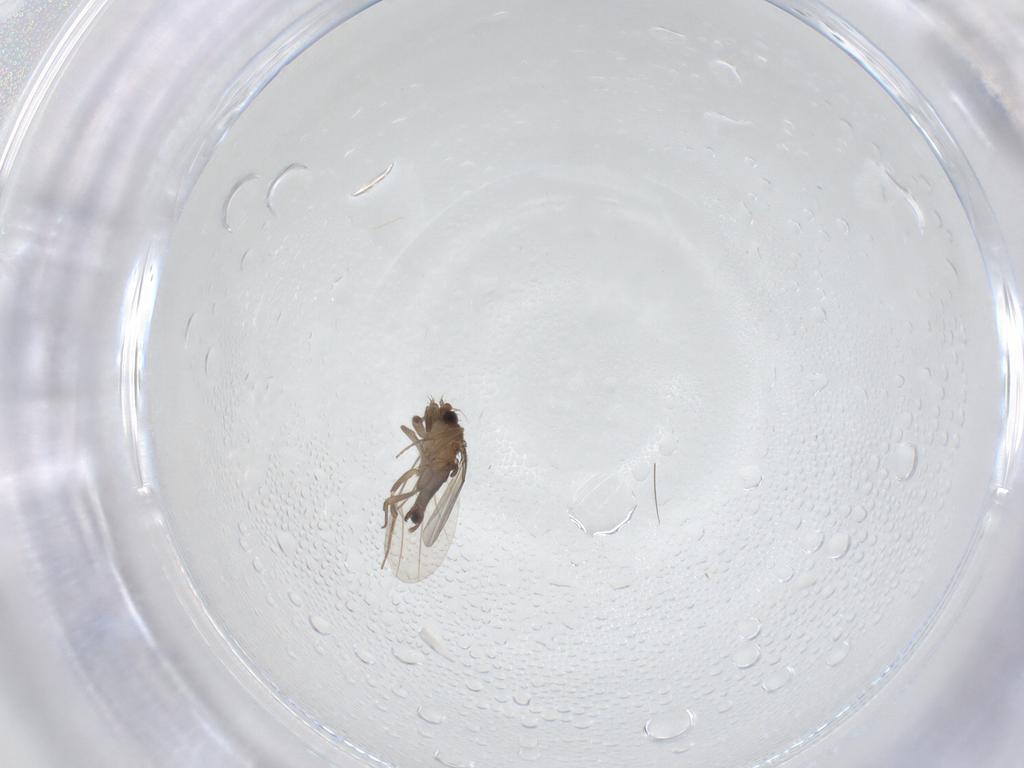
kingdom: Animalia
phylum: Arthropoda
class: Insecta
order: Diptera
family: Phoridae
